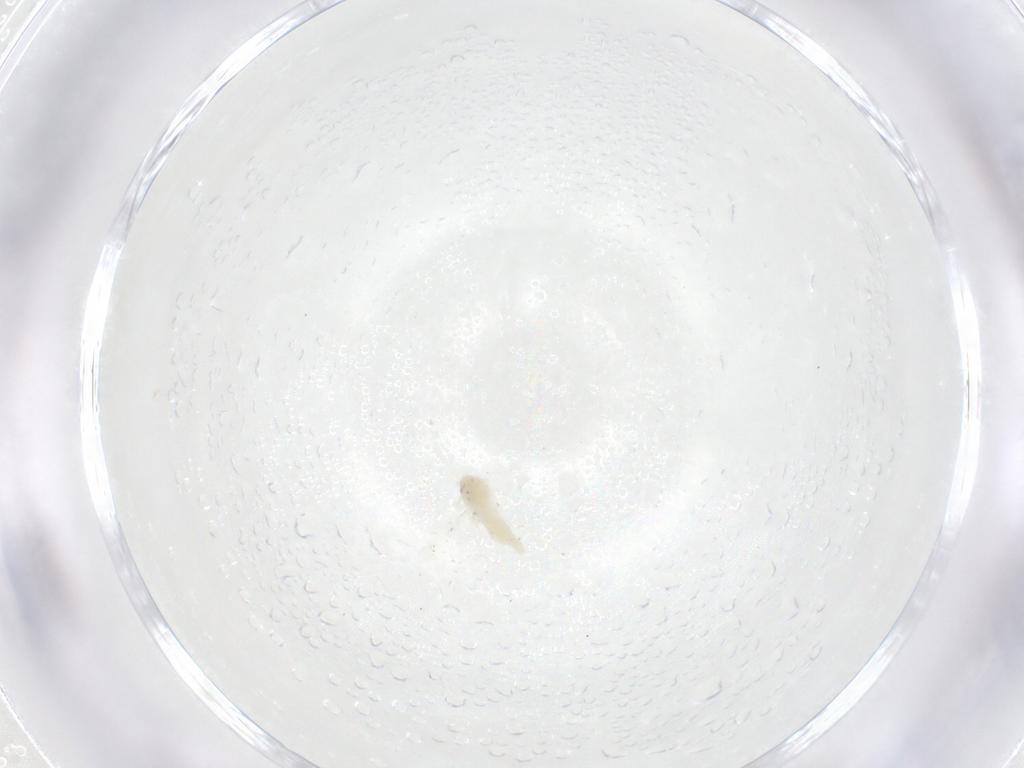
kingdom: Animalia
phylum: Arthropoda
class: Insecta
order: Hemiptera
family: Aleyrodidae
